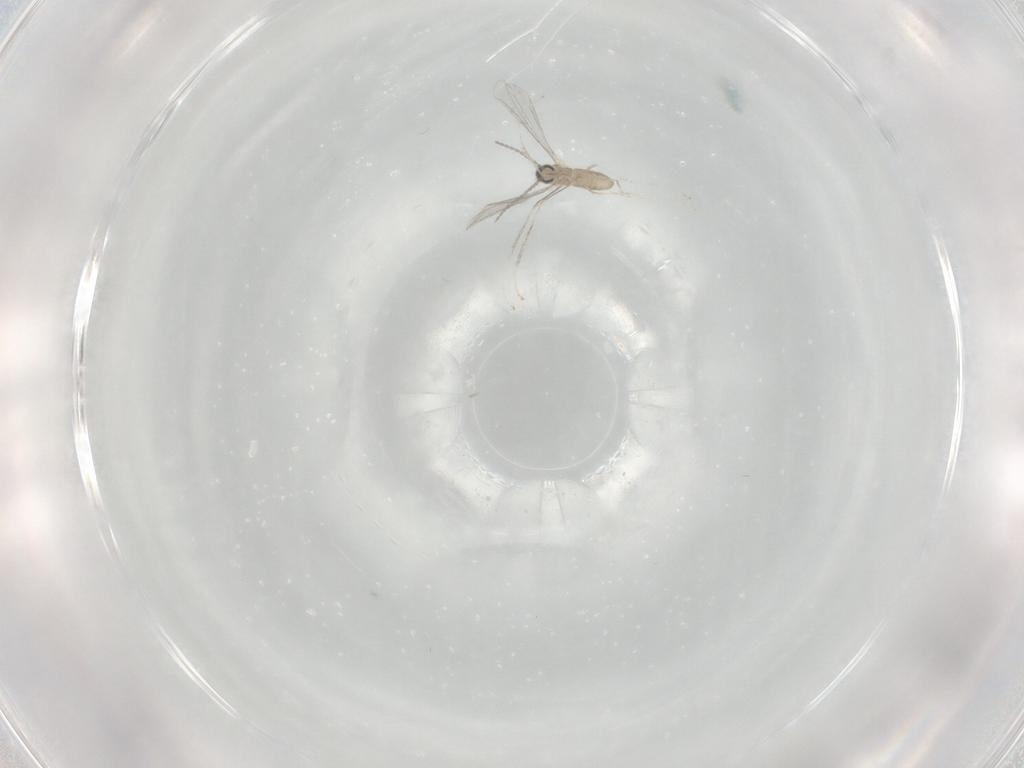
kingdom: Animalia
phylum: Arthropoda
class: Insecta
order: Diptera
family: Cecidomyiidae
